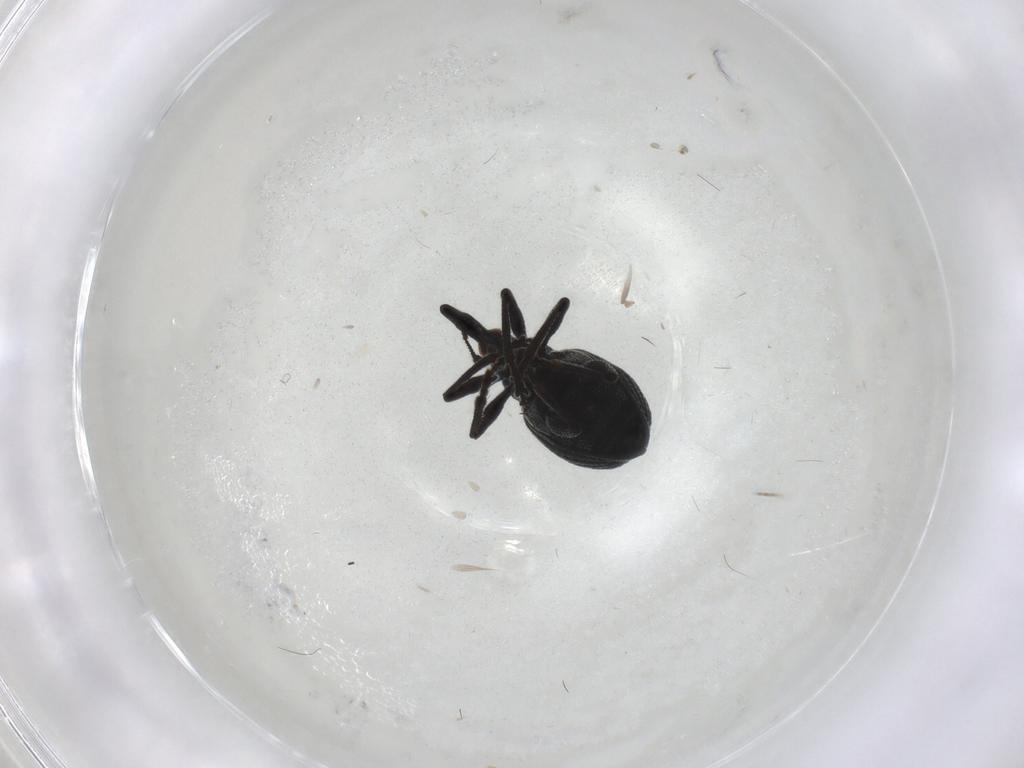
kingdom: Animalia
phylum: Arthropoda
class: Insecta
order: Coleoptera
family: Brentidae
